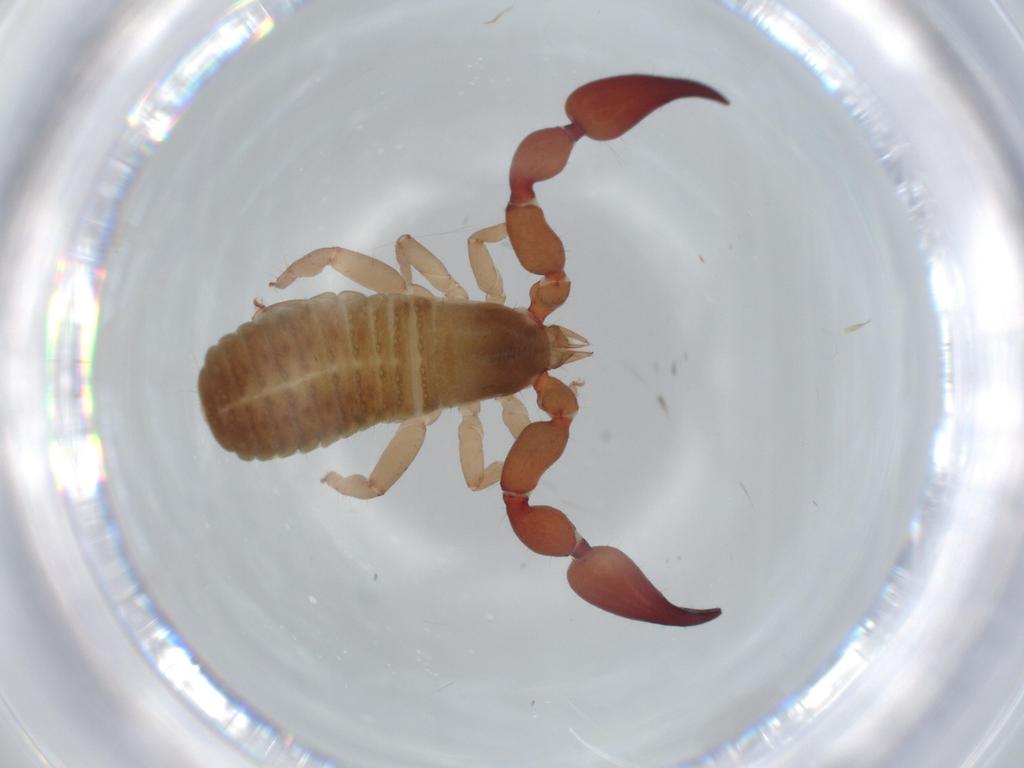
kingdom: Animalia
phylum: Arthropoda
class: Arachnida
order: Pseudoscorpiones
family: Atemnidae
